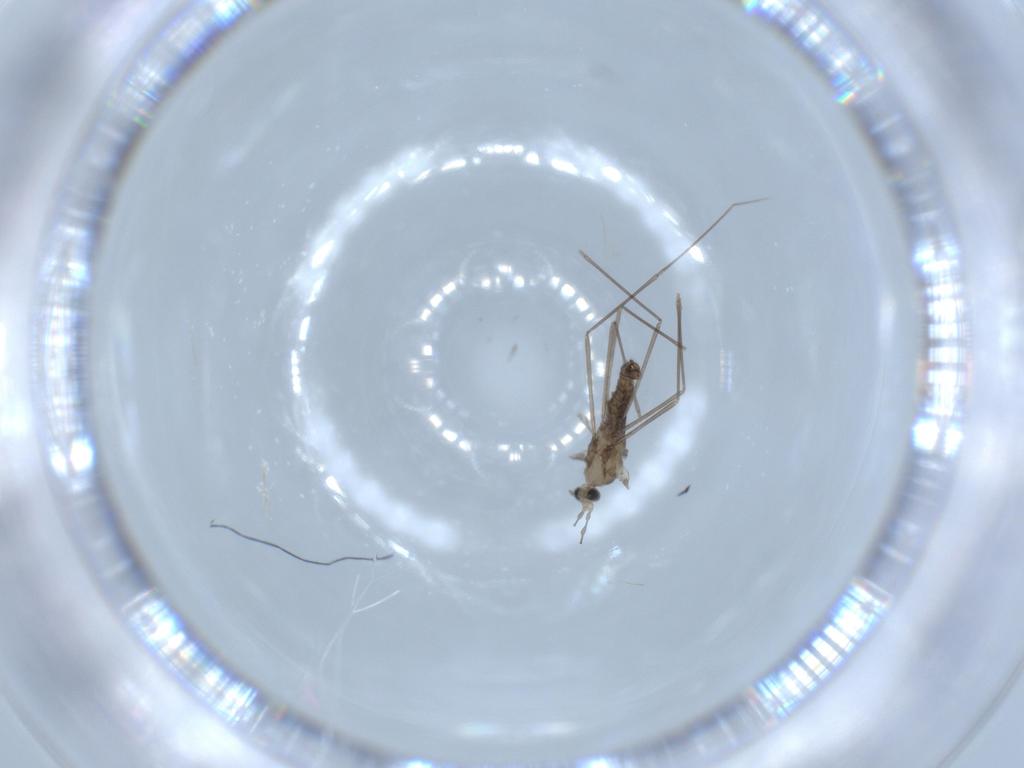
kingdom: Animalia
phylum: Arthropoda
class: Insecta
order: Diptera
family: Cecidomyiidae
